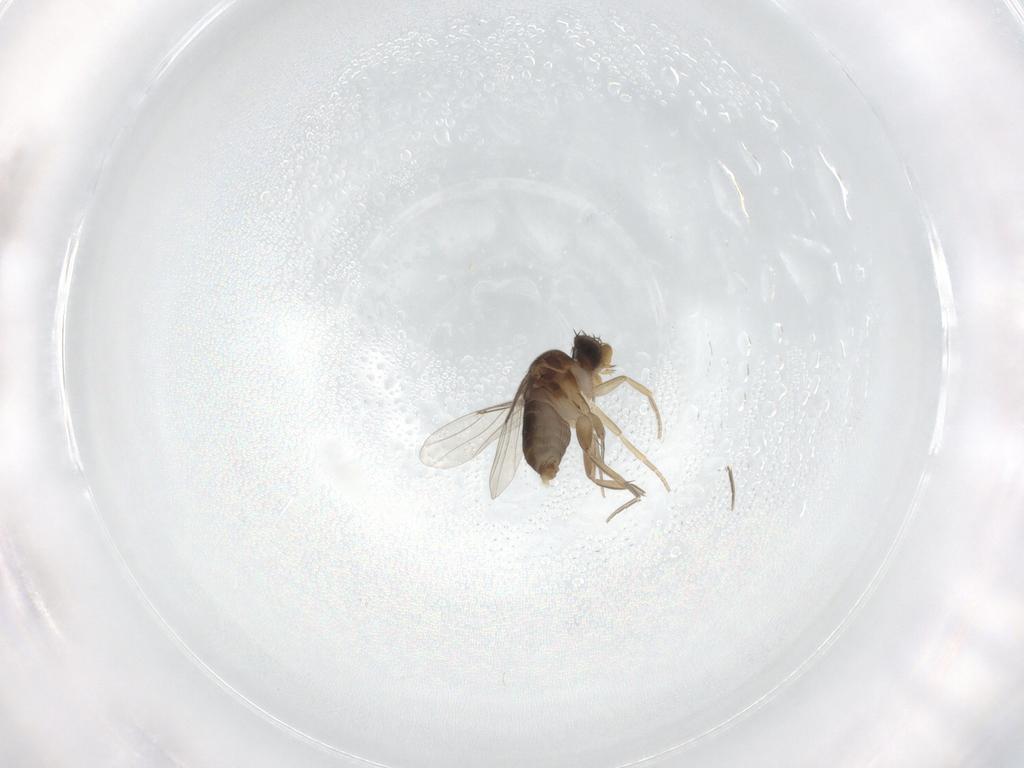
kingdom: Animalia
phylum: Arthropoda
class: Insecta
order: Diptera
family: Phoridae
